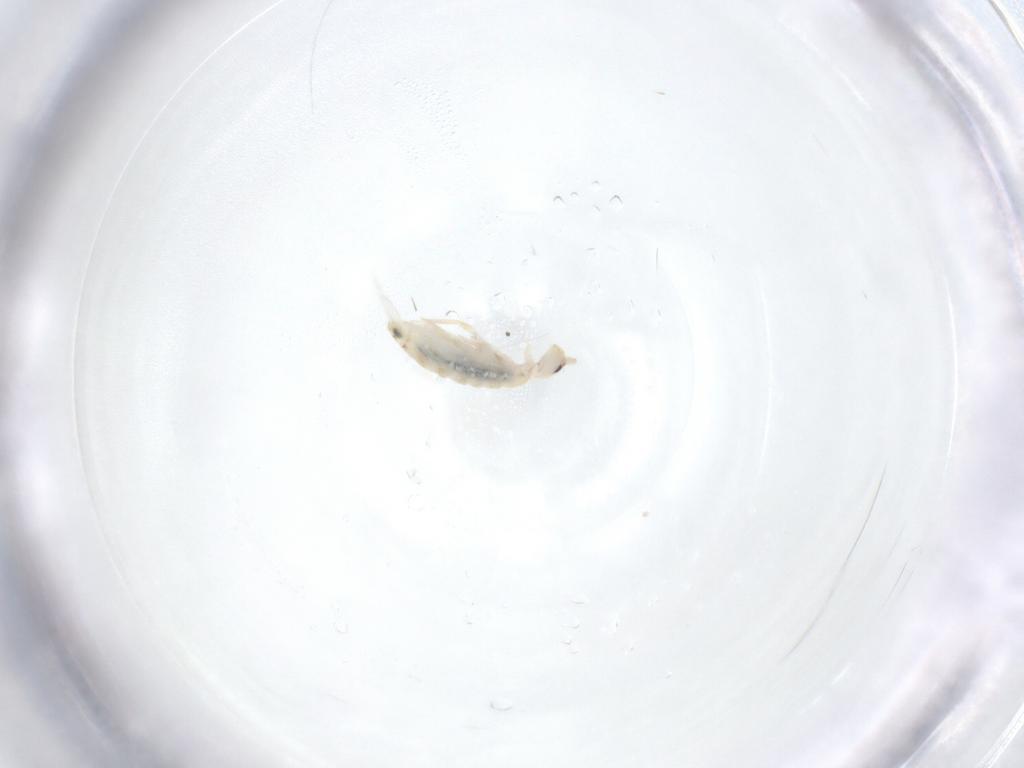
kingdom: Animalia
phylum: Arthropoda
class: Collembola
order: Entomobryomorpha
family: Entomobryidae
